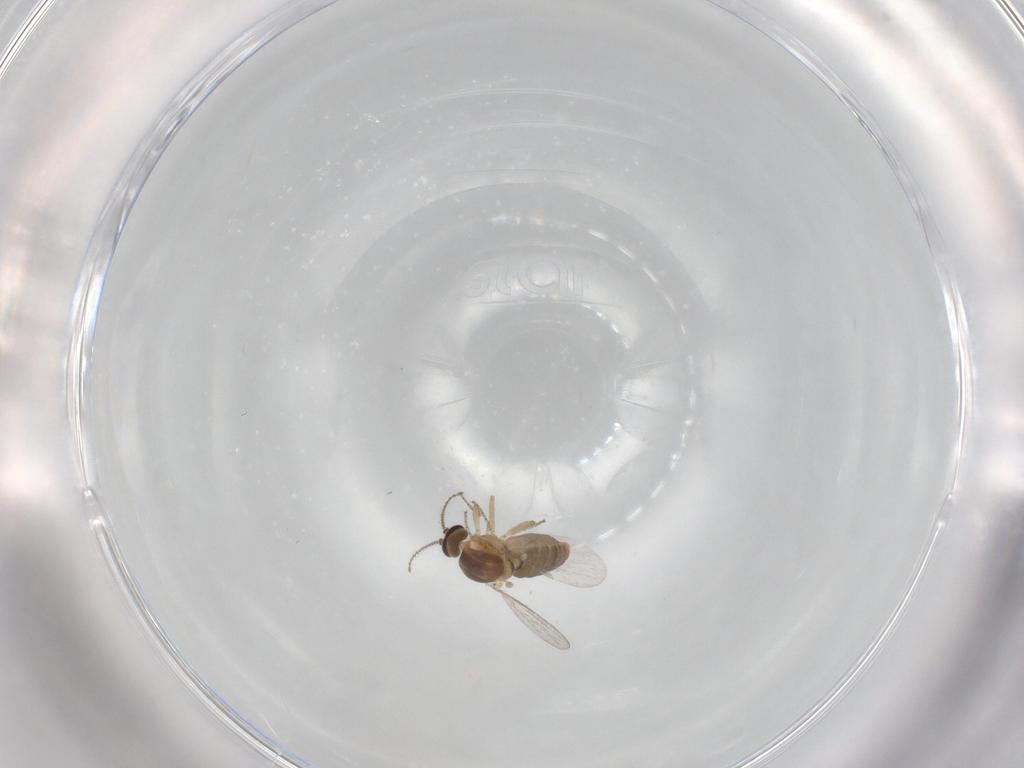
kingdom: Animalia
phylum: Arthropoda
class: Insecta
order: Diptera
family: Ceratopogonidae
